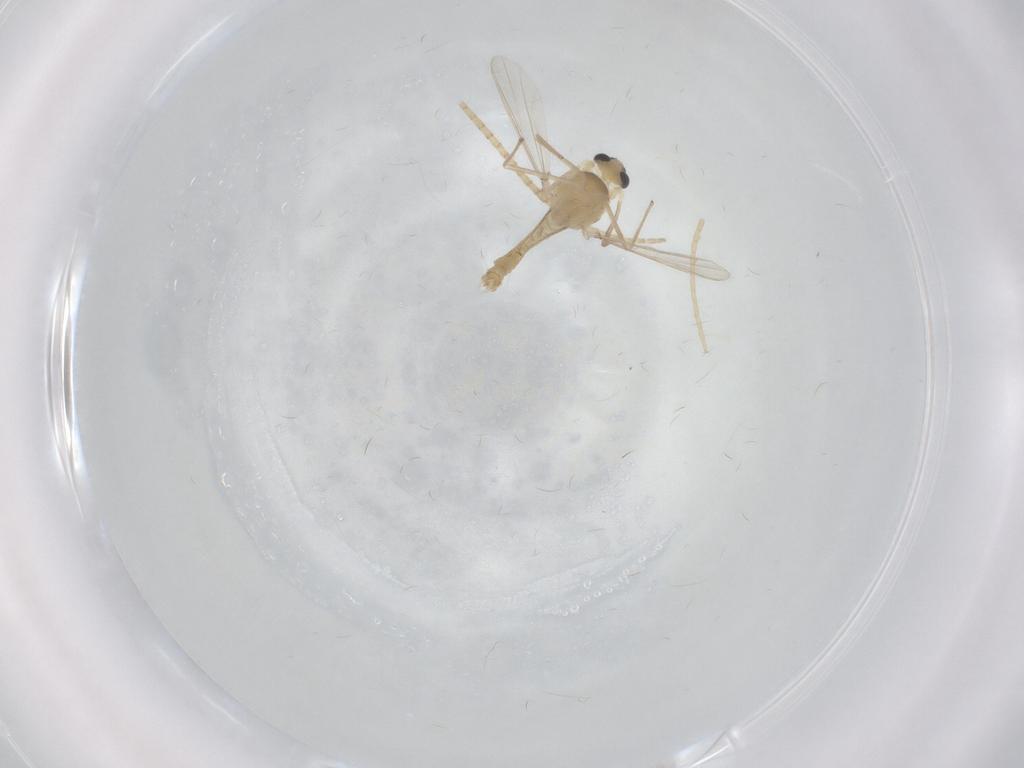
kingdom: Animalia
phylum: Arthropoda
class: Insecta
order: Diptera
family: Chironomidae
